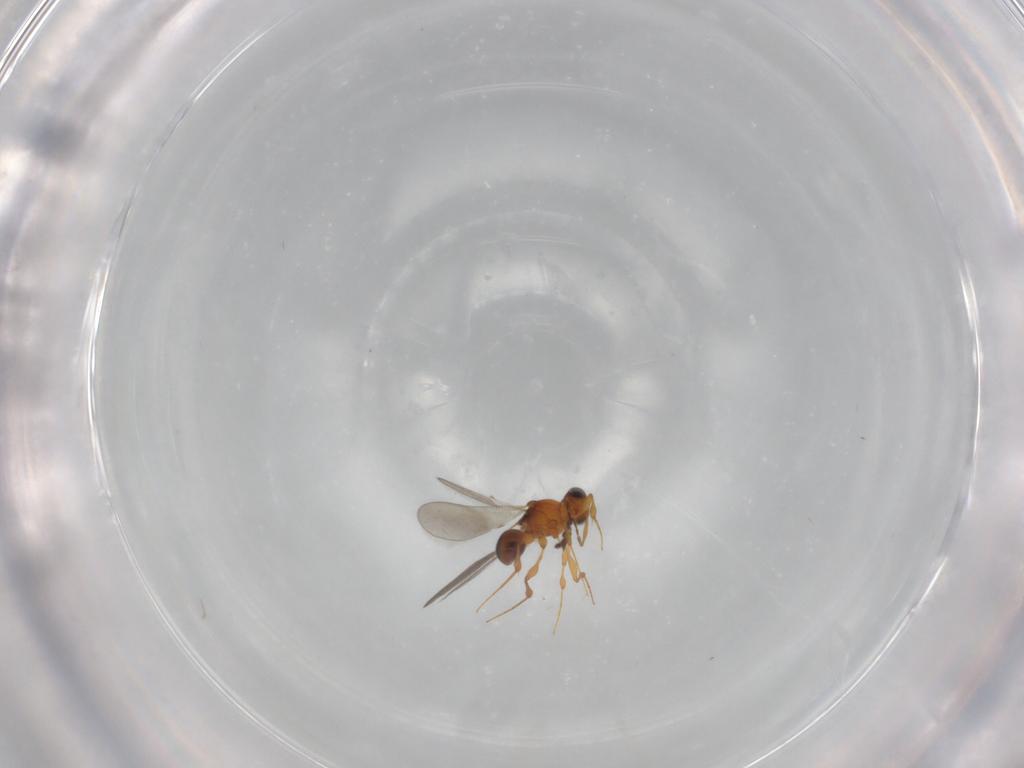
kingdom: Animalia
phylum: Arthropoda
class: Insecta
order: Hymenoptera
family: Platygastridae
